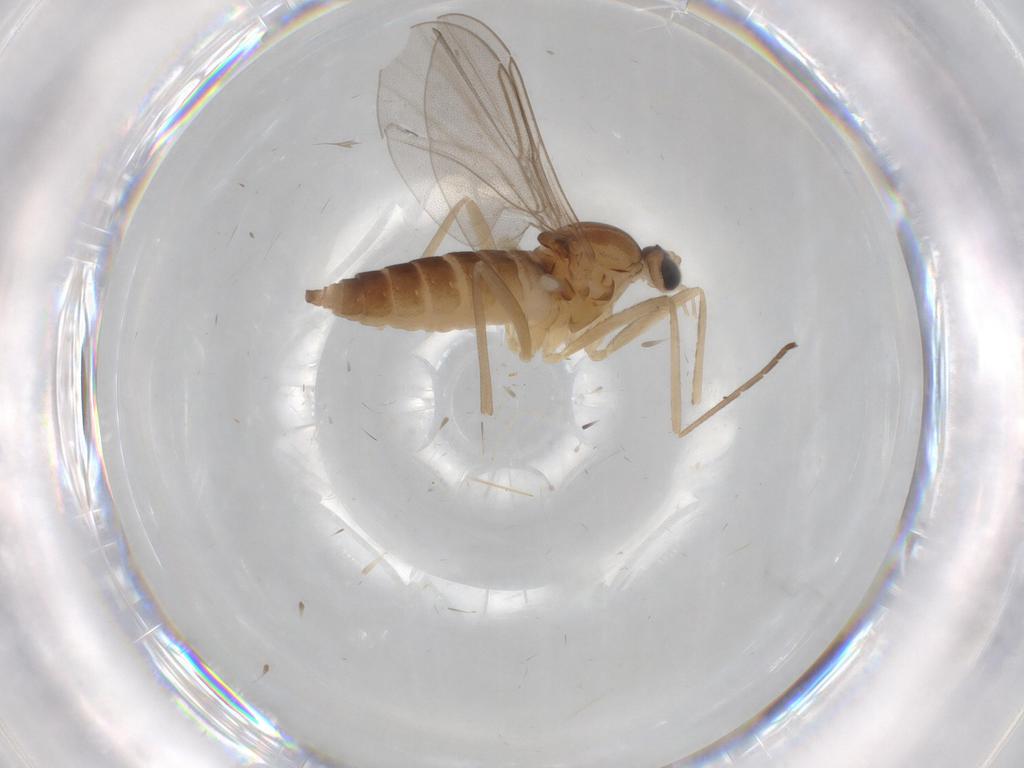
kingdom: Animalia
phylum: Arthropoda
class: Insecta
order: Diptera
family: Cecidomyiidae
